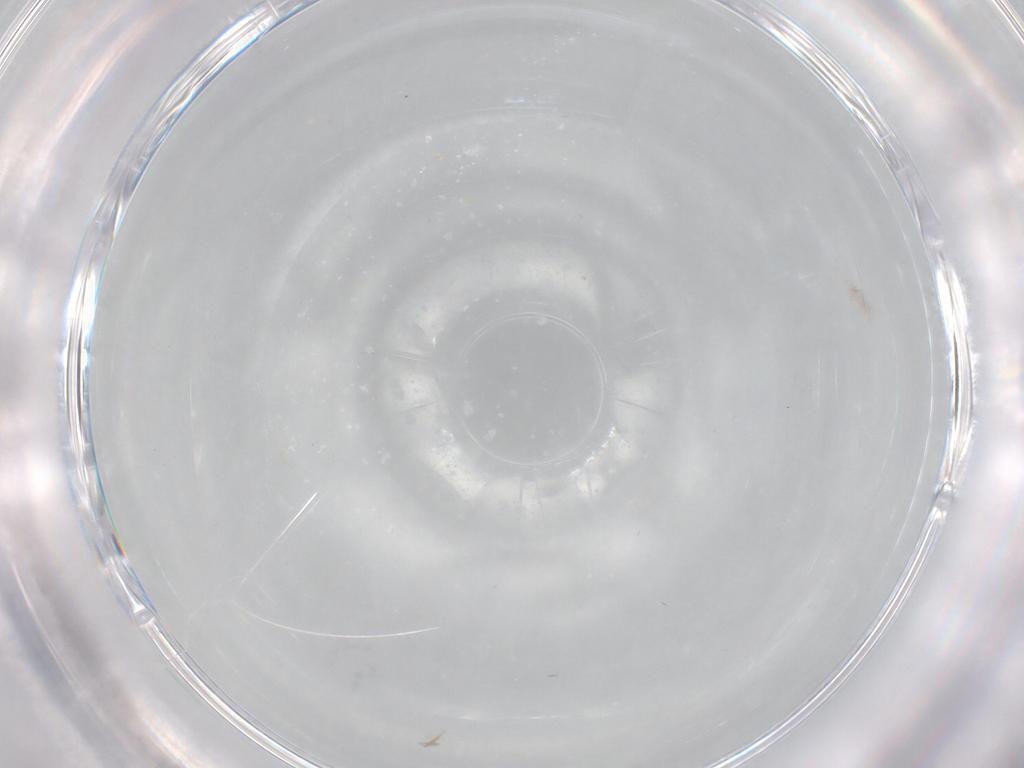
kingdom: Animalia
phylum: Arthropoda
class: Insecta
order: Diptera
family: Cecidomyiidae
